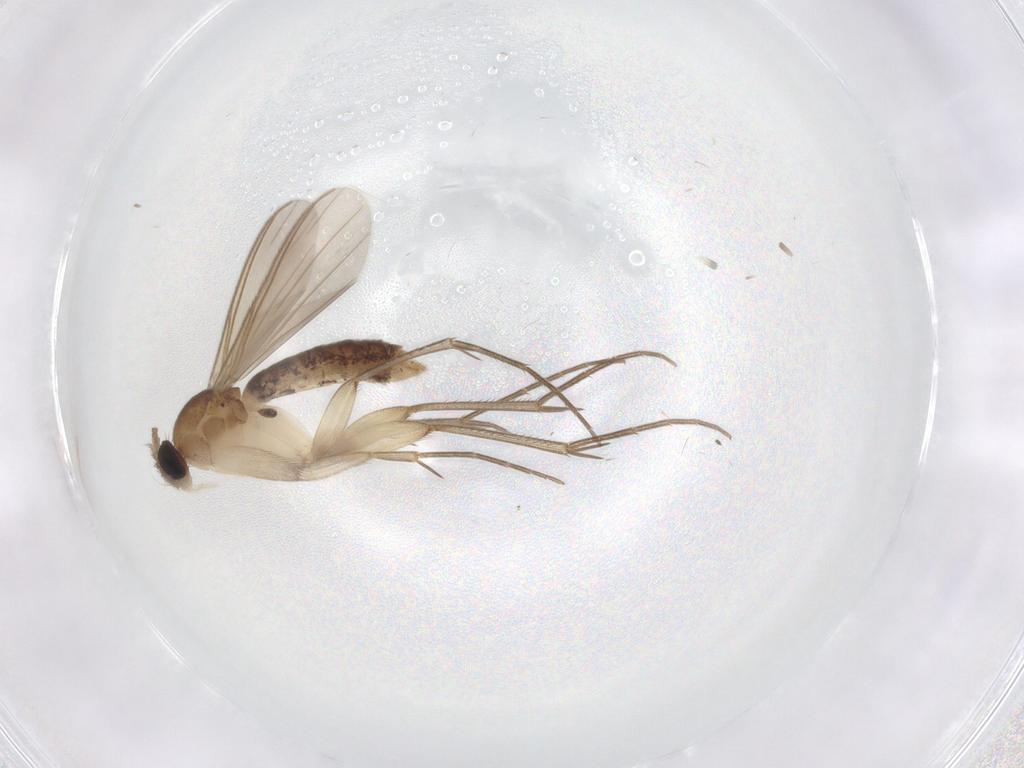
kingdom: Animalia
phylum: Arthropoda
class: Insecta
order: Diptera
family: Mycetophilidae
